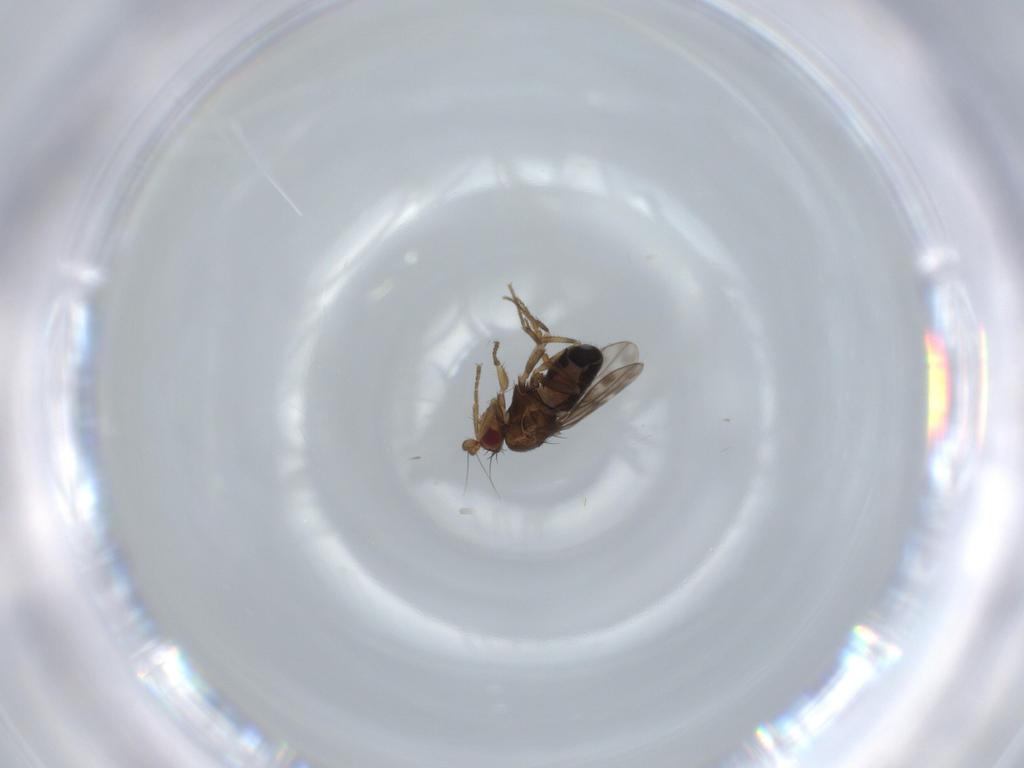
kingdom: Animalia
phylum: Arthropoda
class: Insecta
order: Diptera
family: Sphaeroceridae
